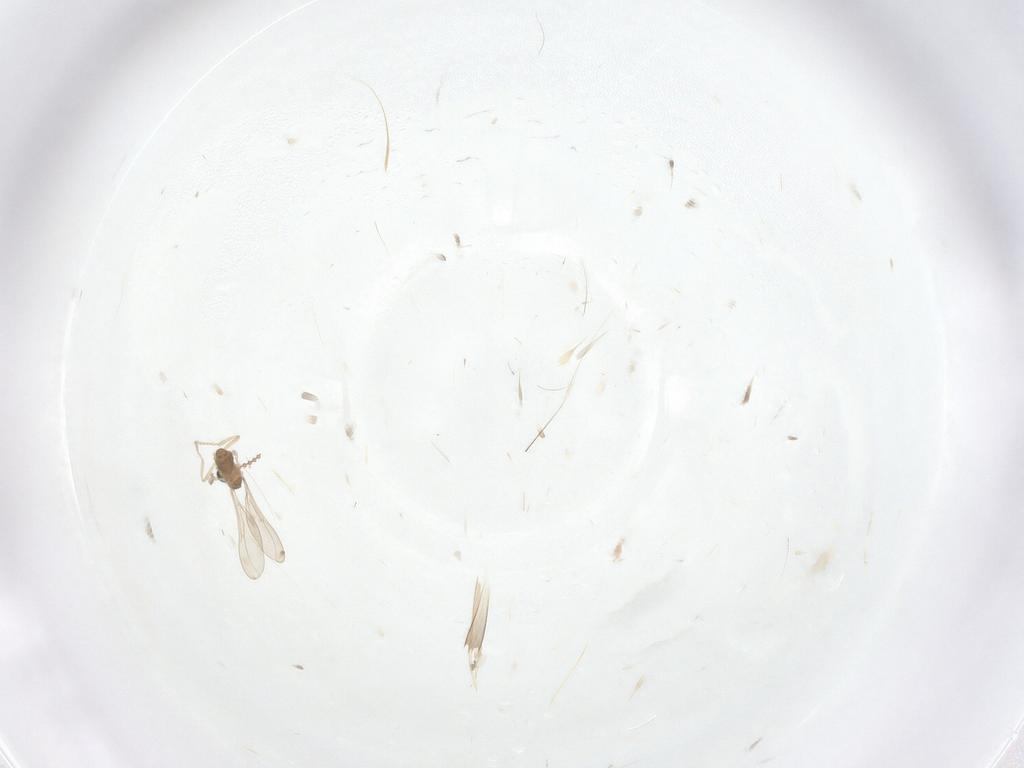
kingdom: Animalia
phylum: Arthropoda
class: Insecta
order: Diptera
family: Cecidomyiidae
